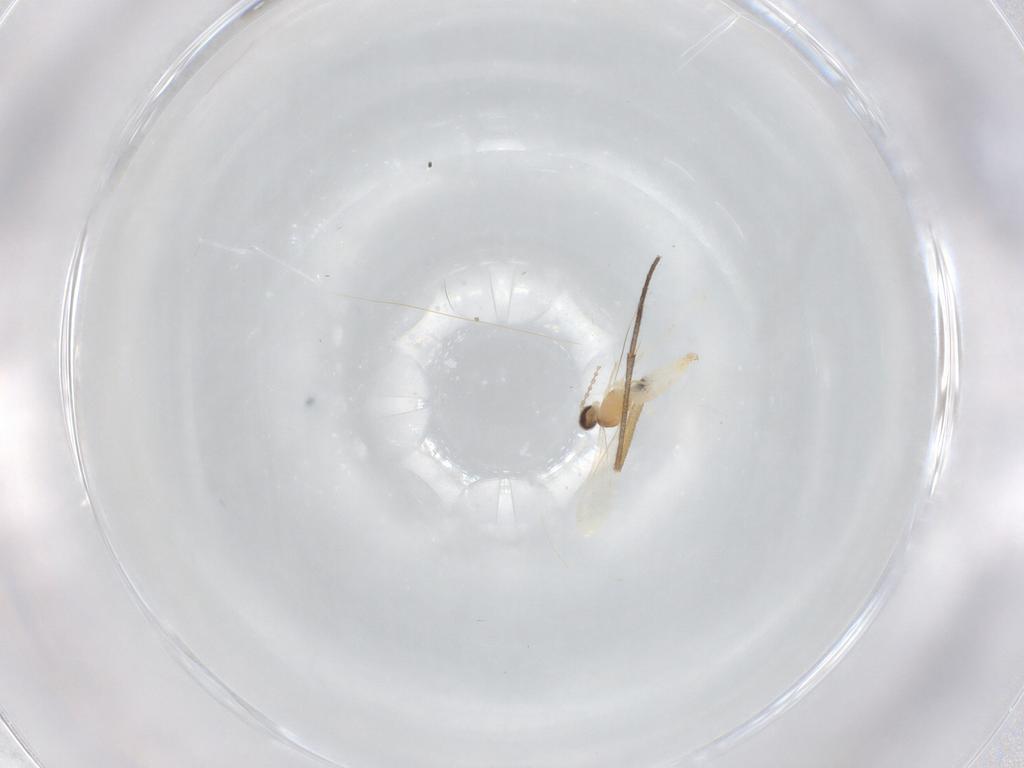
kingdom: Animalia
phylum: Arthropoda
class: Insecta
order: Diptera
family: Sciaridae
